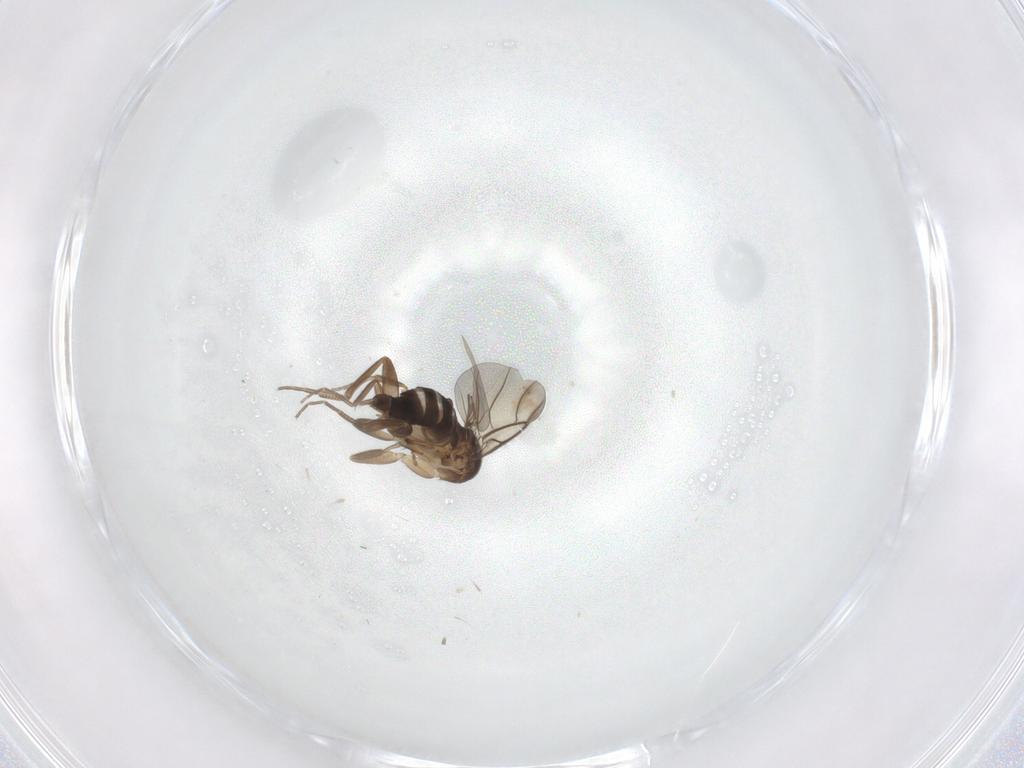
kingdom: Animalia
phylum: Arthropoda
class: Insecta
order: Diptera
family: Phoridae
